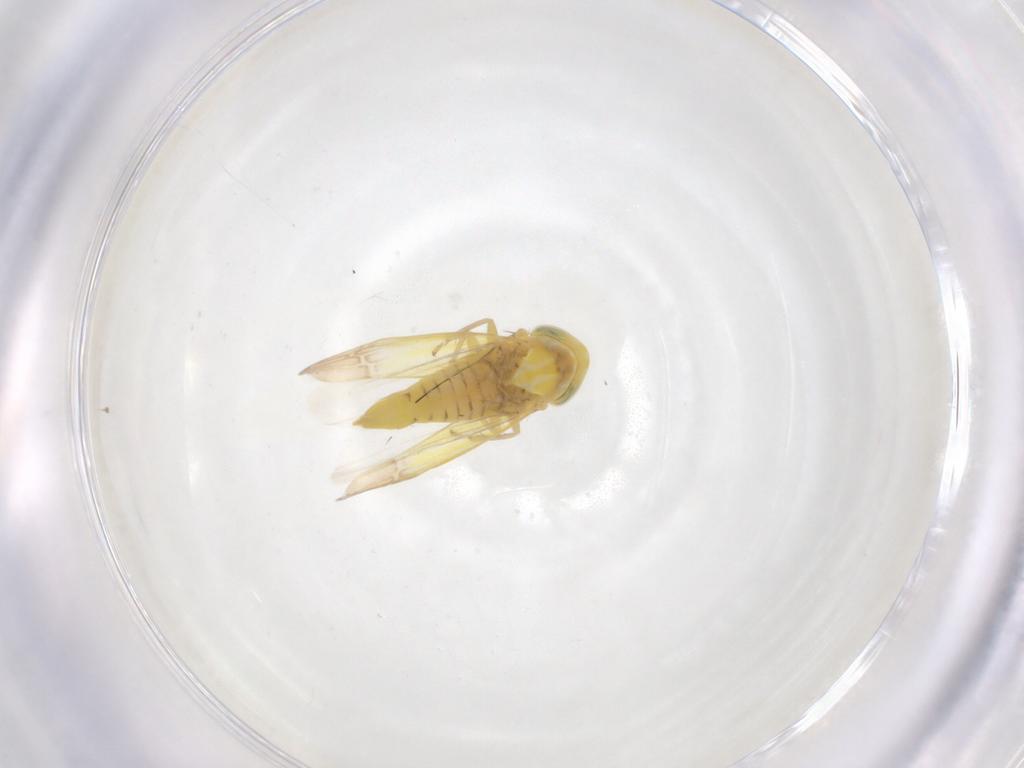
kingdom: Animalia
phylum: Arthropoda
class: Insecta
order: Hemiptera
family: Cicadellidae
